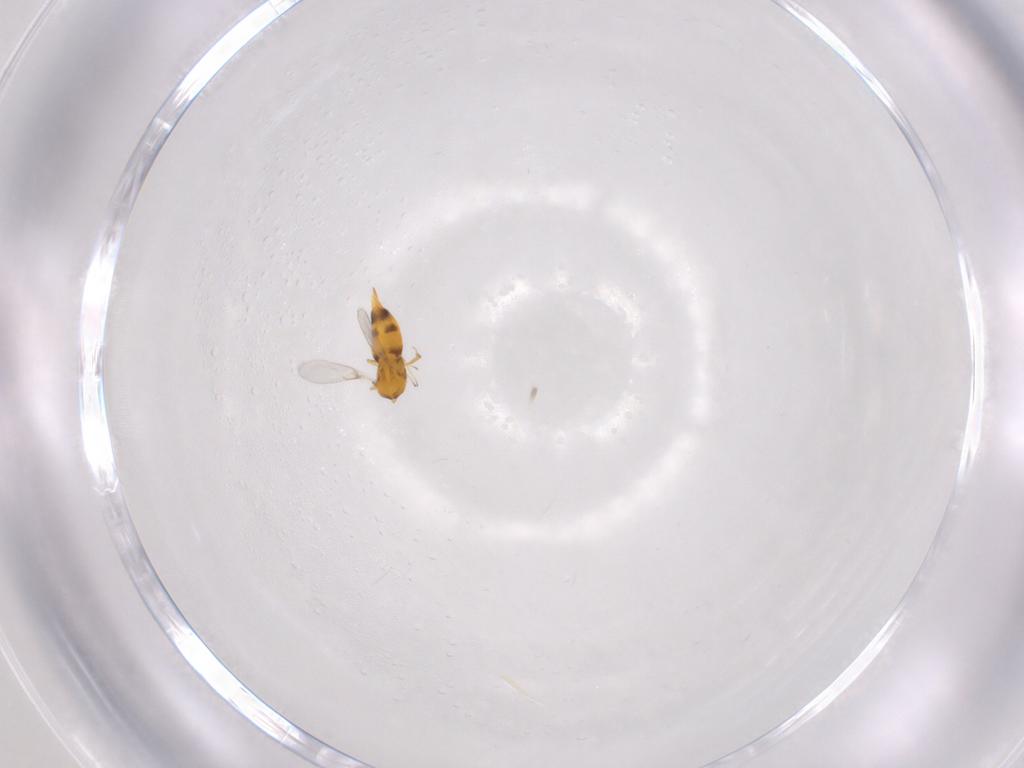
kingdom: Animalia
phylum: Arthropoda
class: Insecta
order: Hymenoptera
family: Aphelinidae
